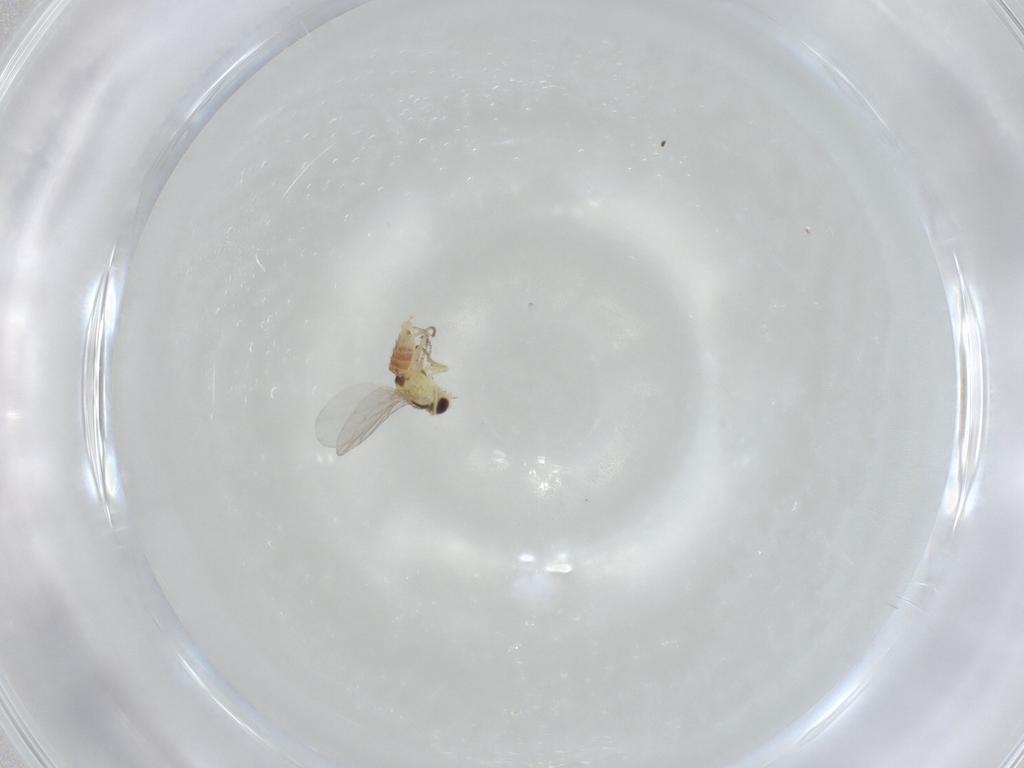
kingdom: Animalia
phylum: Arthropoda
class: Insecta
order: Diptera
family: Agromyzidae
